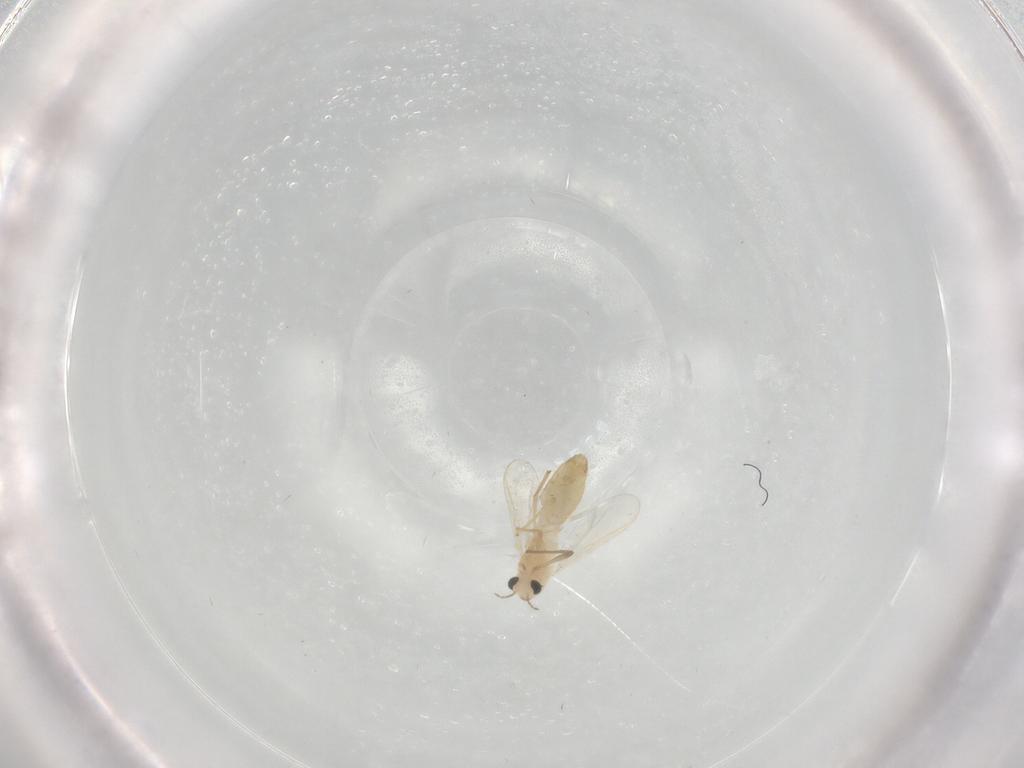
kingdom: Animalia
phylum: Arthropoda
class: Insecta
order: Diptera
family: Chironomidae
